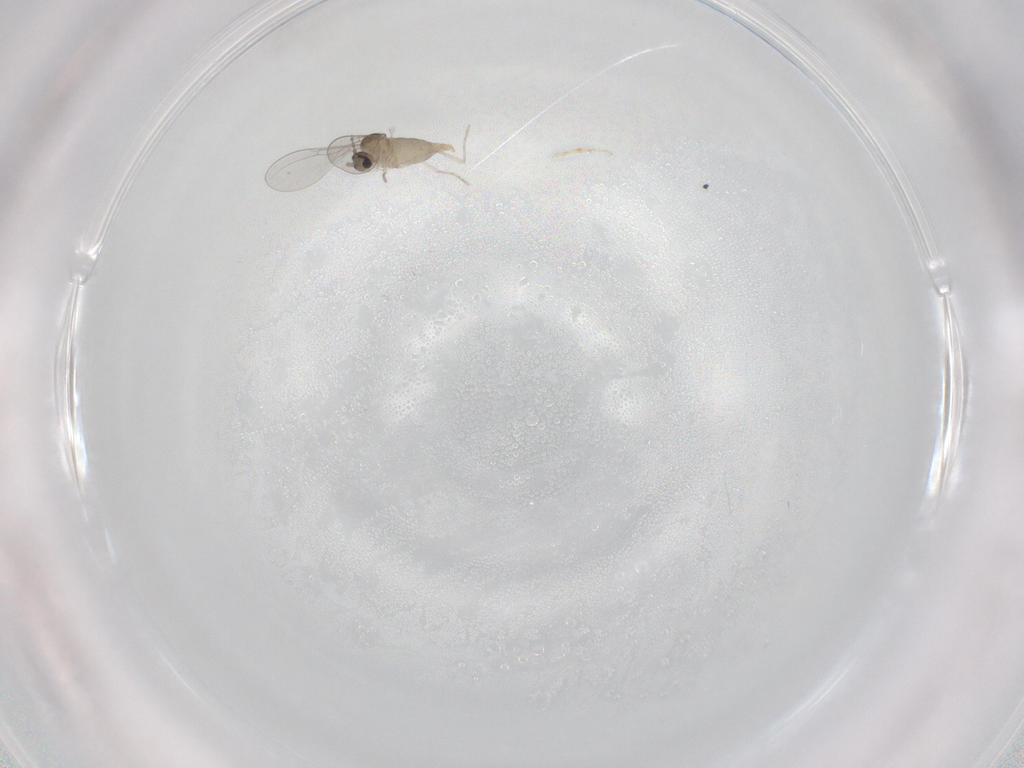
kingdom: Animalia
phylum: Arthropoda
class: Insecta
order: Diptera
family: Cecidomyiidae
